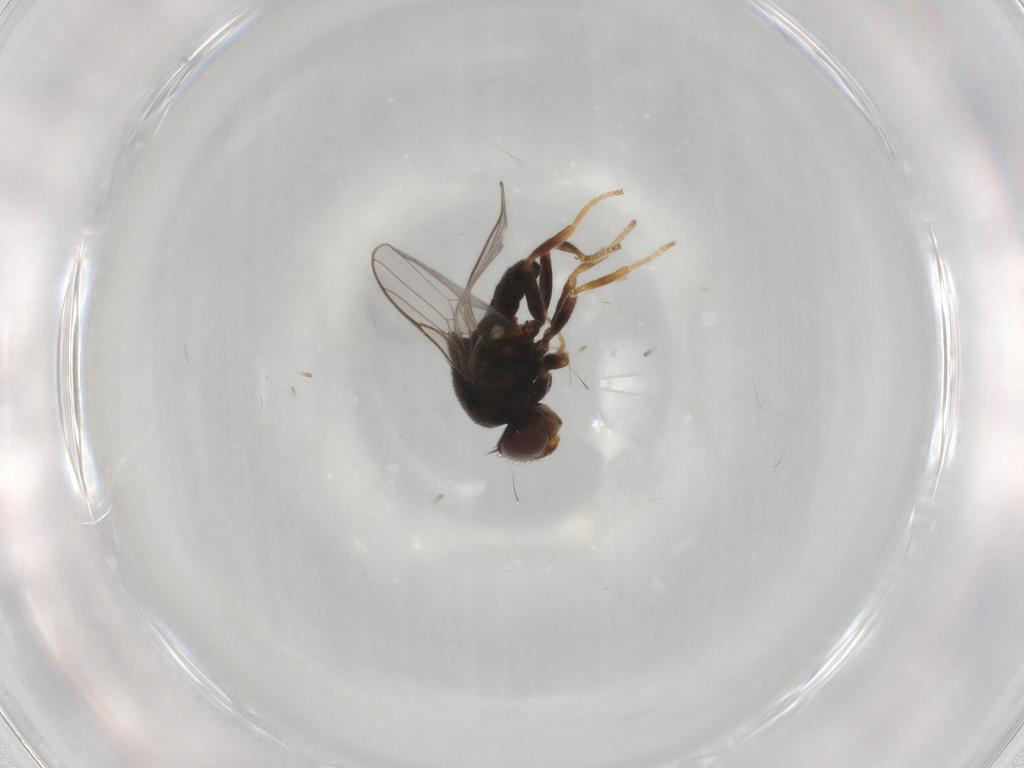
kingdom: Animalia
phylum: Arthropoda
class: Insecta
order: Diptera
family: Chloropidae
